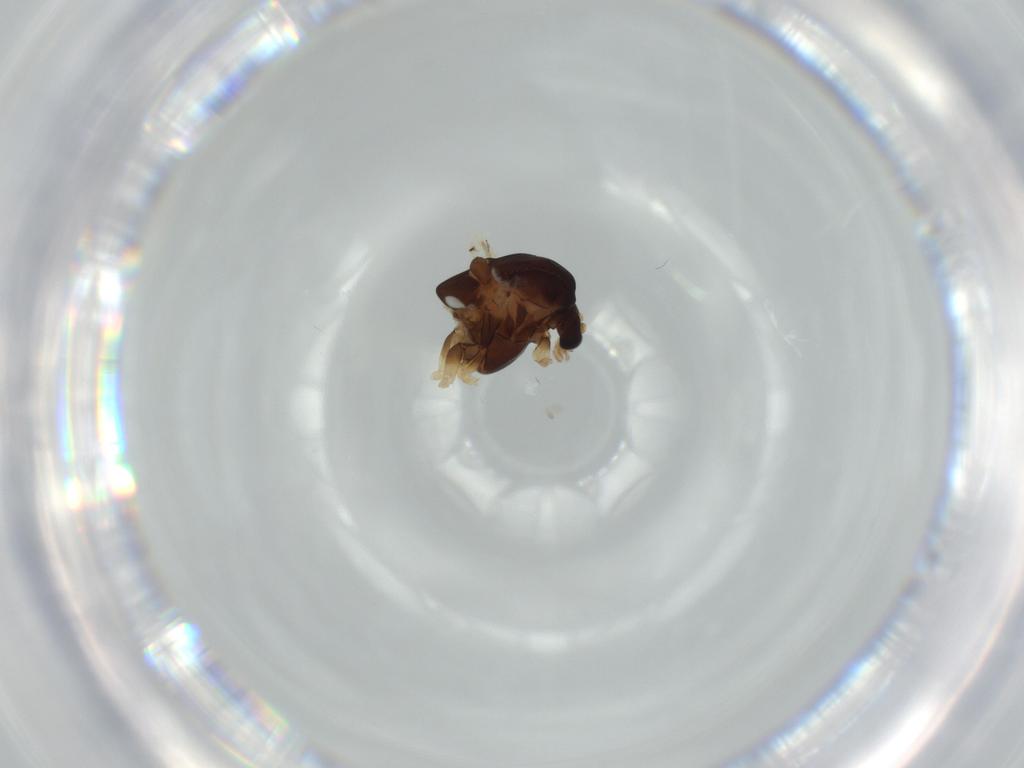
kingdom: Animalia
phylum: Arthropoda
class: Insecta
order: Diptera
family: Chironomidae
